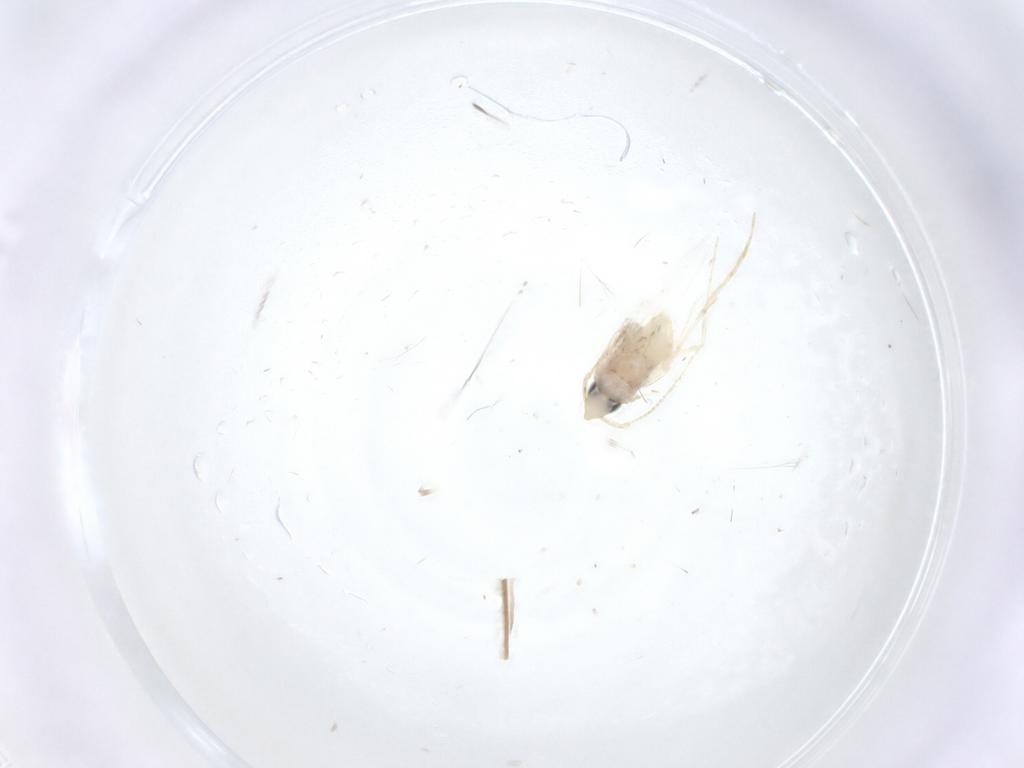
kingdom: Animalia
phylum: Arthropoda
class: Insecta
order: Lepidoptera
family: Tineidae
